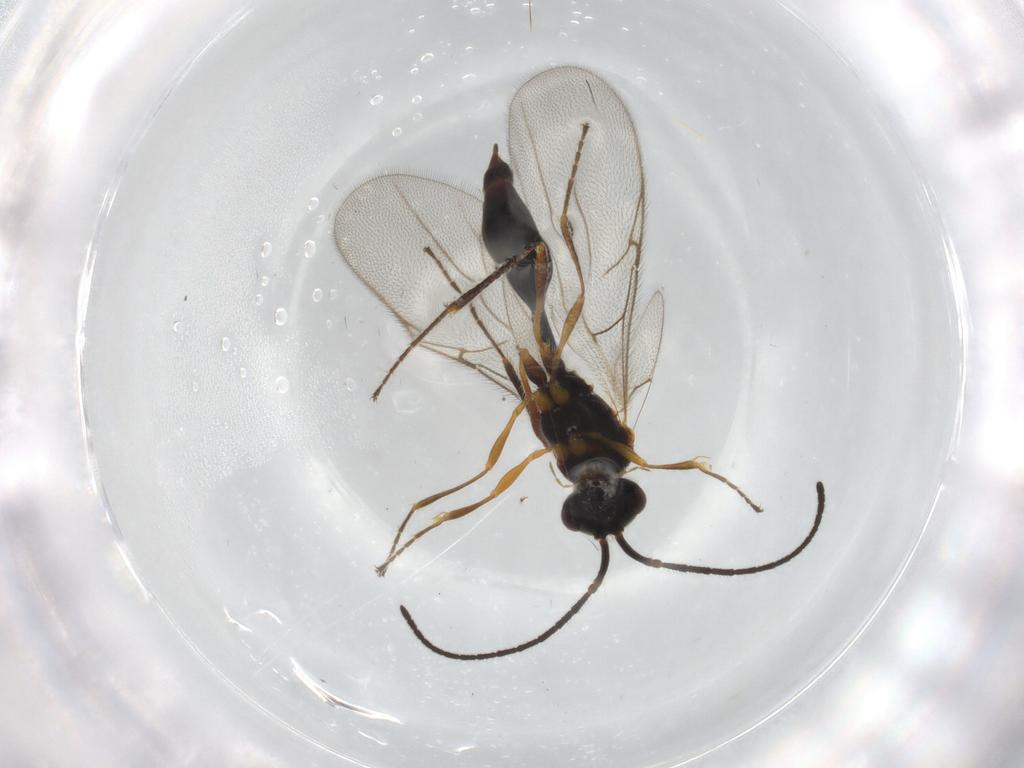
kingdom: Animalia
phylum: Arthropoda
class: Insecta
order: Hymenoptera
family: Diapriidae
